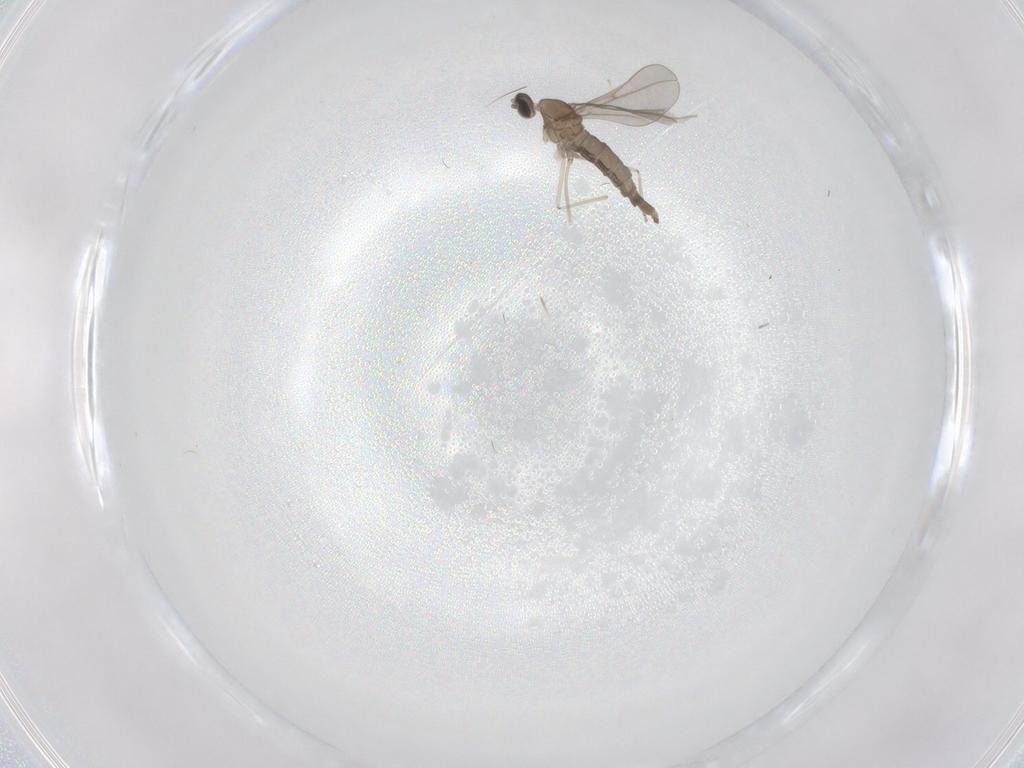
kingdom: Animalia
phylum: Arthropoda
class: Insecta
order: Diptera
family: Cecidomyiidae
